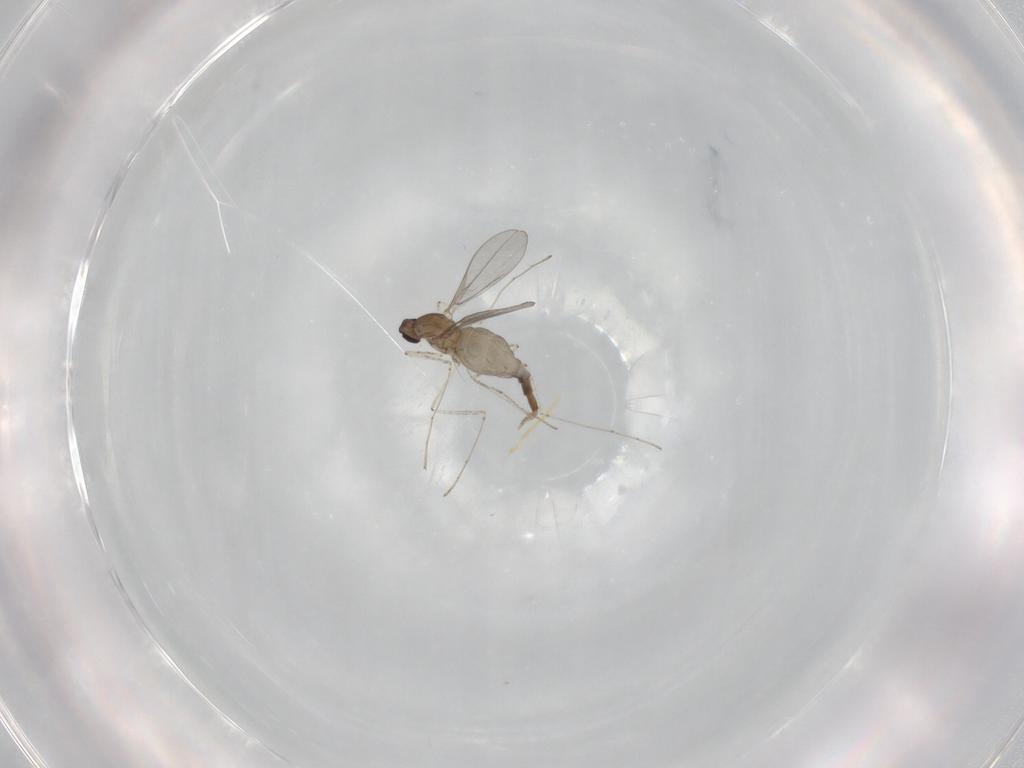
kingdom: Animalia
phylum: Arthropoda
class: Insecta
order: Diptera
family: Cecidomyiidae
